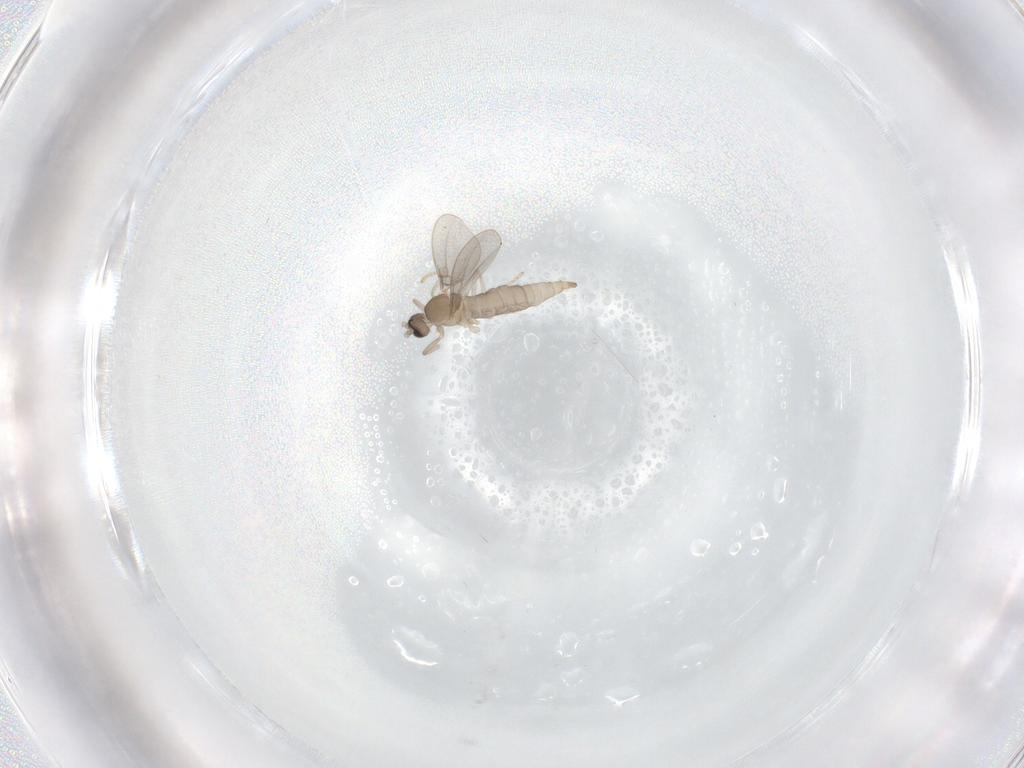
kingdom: Animalia
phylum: Arthropoda
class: Insecta
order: Diptera
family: Cecidomyiidae
